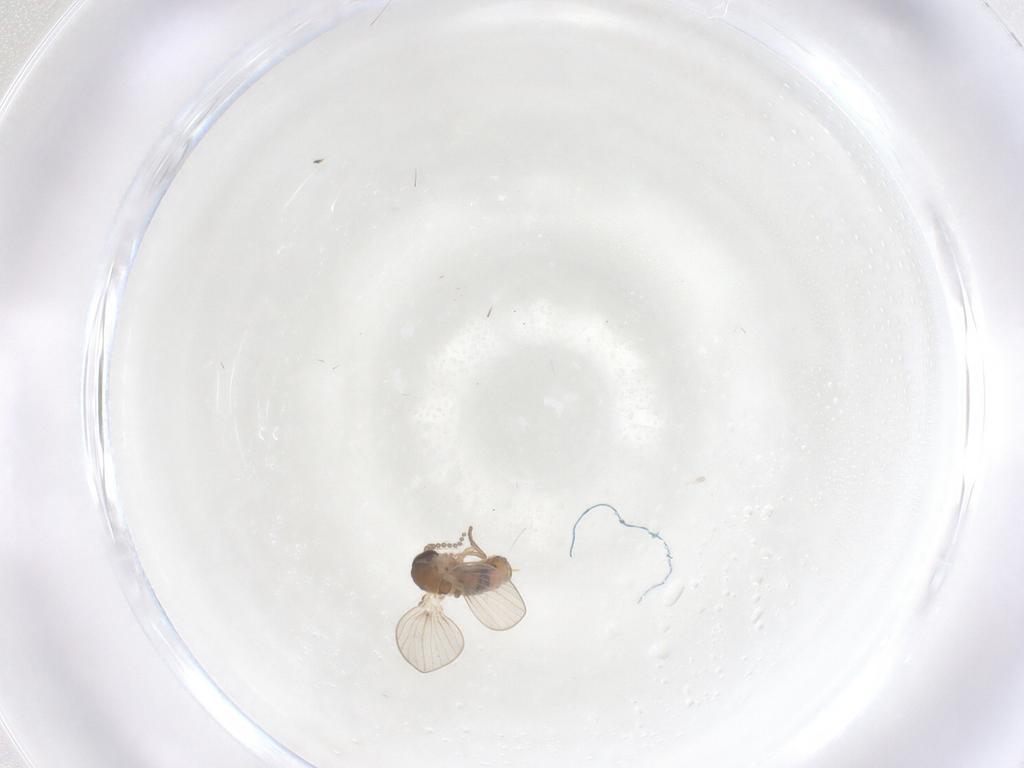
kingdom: Animalia
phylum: Arthropoda
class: Insecta
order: Diptera
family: Psychodidae
